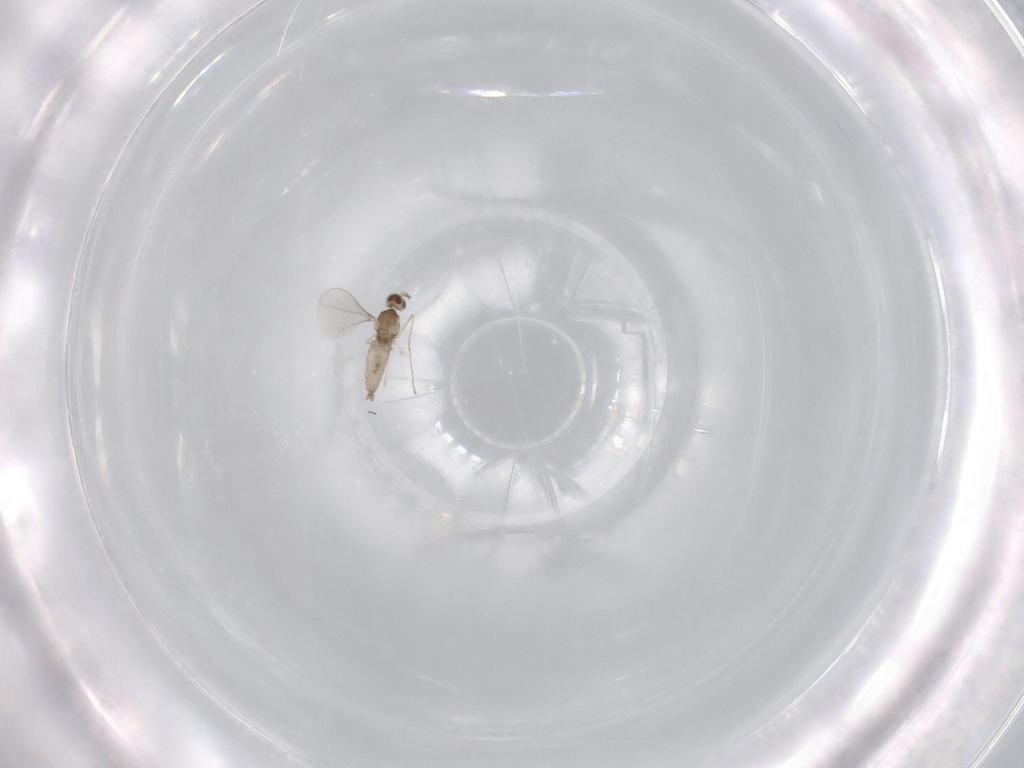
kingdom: Animalia
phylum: Arthropoda
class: Insecta
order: Diptera
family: Cecidomyiidae
